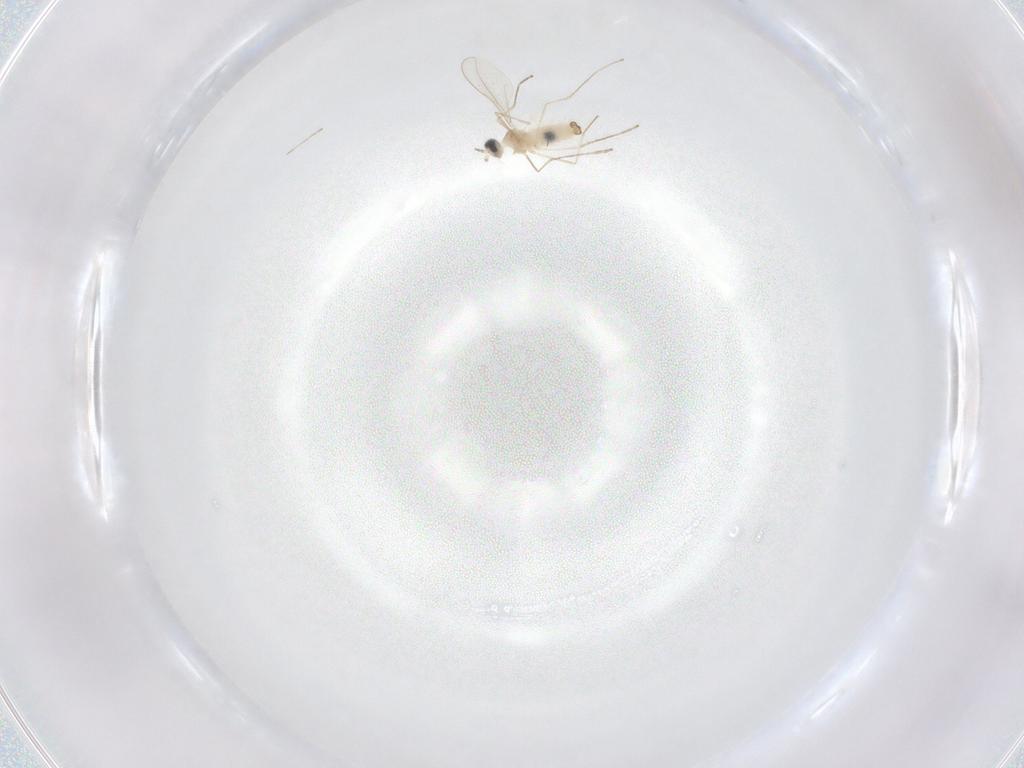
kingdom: Animalia
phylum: Arthropoda
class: Insecta
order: Diptera
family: Cecidomyiidae
